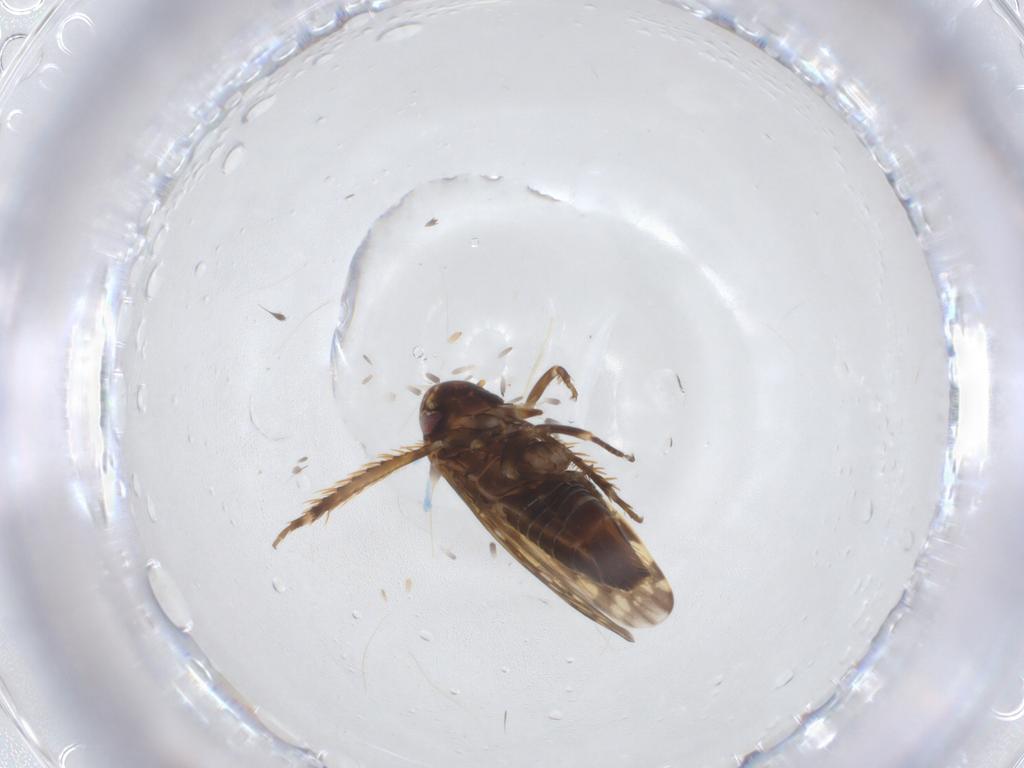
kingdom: Animalia
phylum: Arthropoda
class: Insecta
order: Hemiptera
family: Cicadellidae
